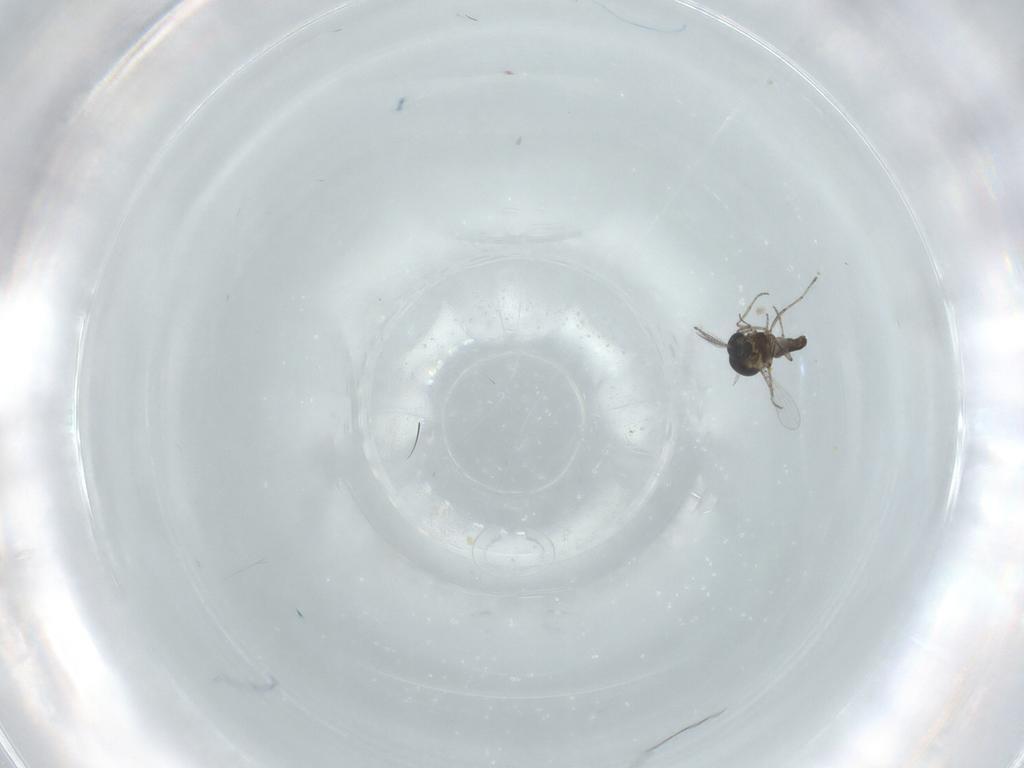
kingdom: Animalia
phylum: Arthropoda
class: Insecta
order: Diptera
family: Ceratopogonidae
